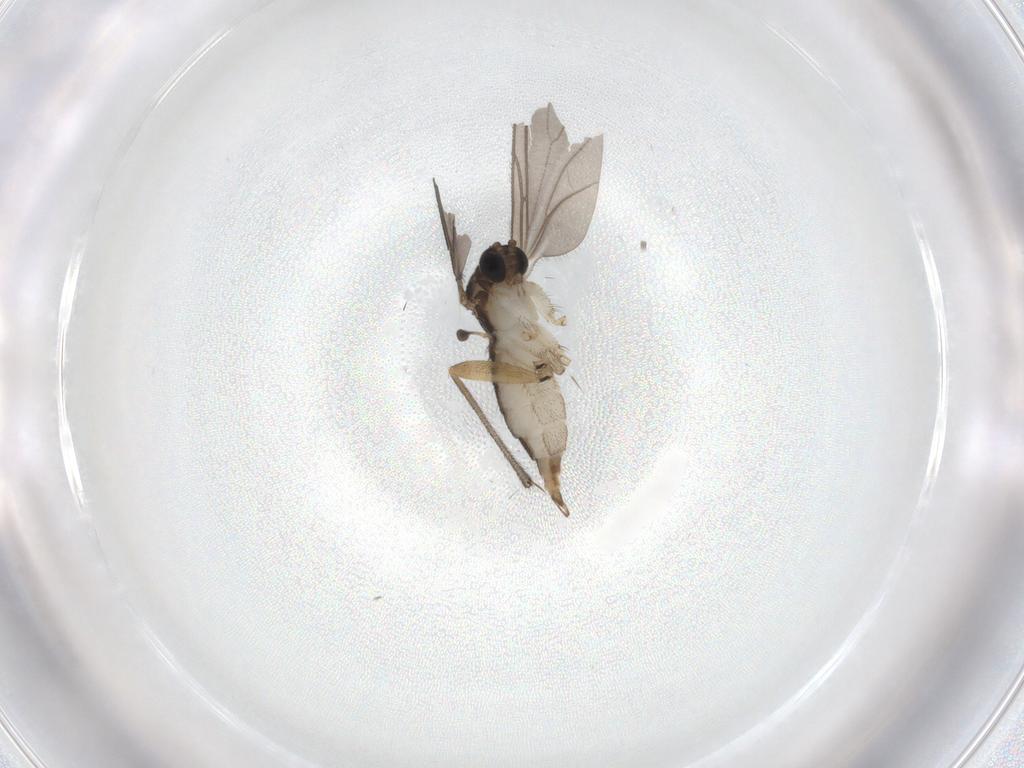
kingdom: Animalia
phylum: Arthropoda
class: Insecta
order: Diptera
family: Sciaridae
